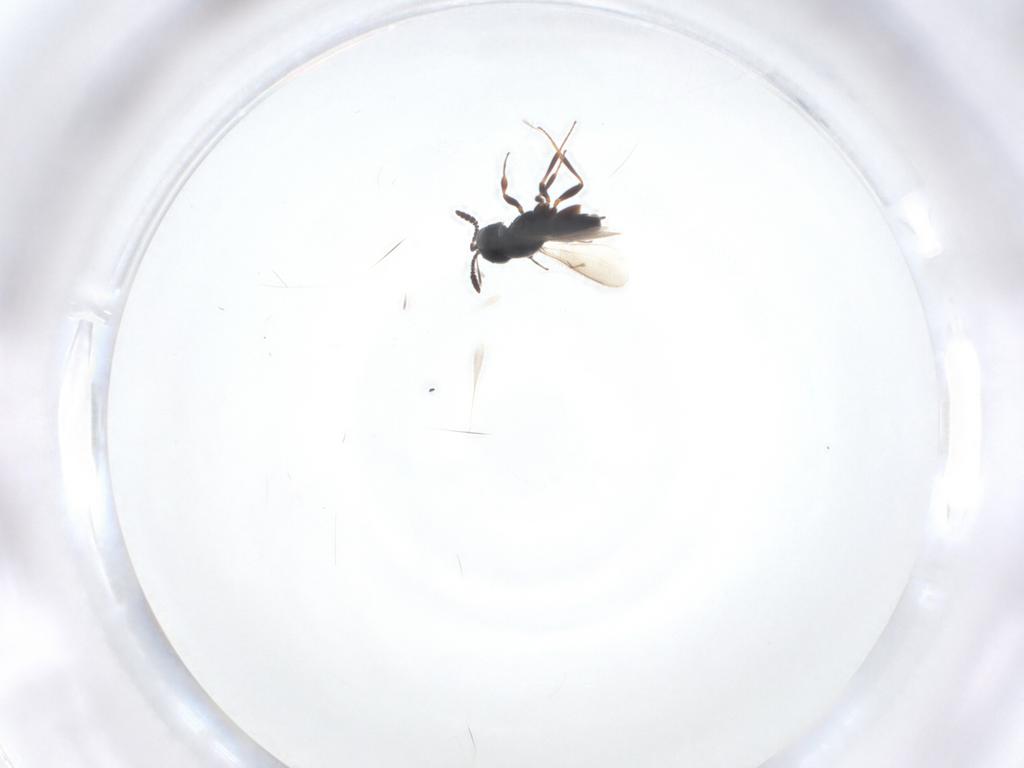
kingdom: Animalia
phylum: Arthropoda
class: Insecta
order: Hymenoptera
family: Scelionidae
